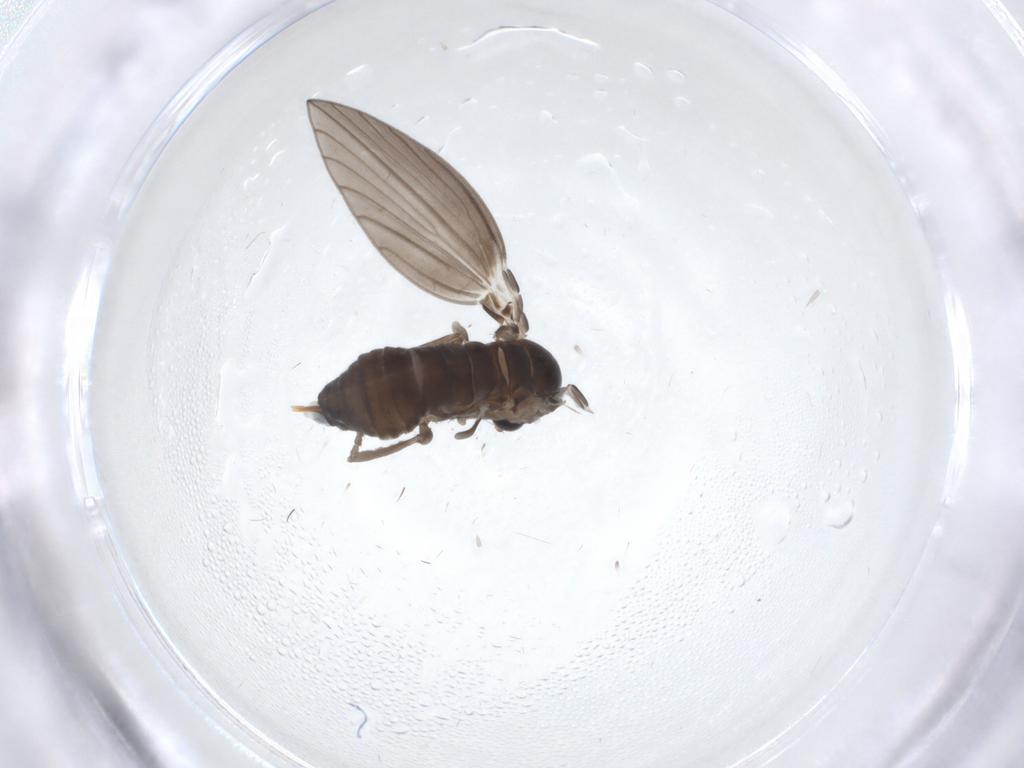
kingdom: Animalia
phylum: Arthropoda
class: Insecta
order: Diptera
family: Psychodidae
